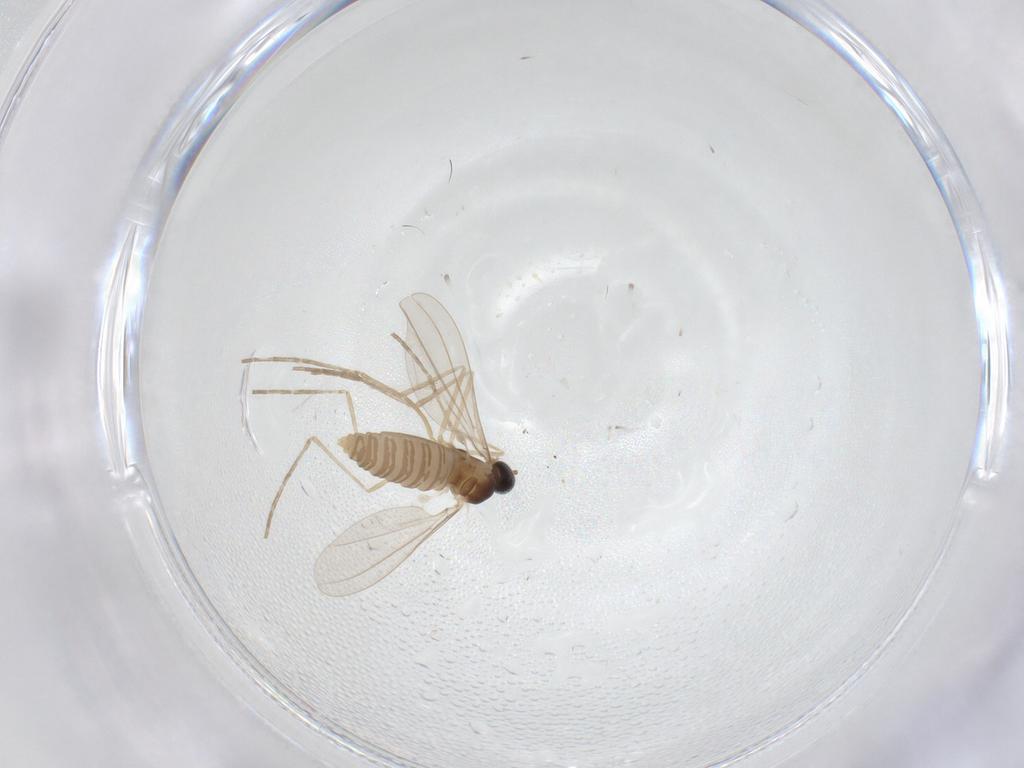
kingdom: Animalia
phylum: Arthropoda
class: Insecta
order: Diptera
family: Cecidomyiidae
